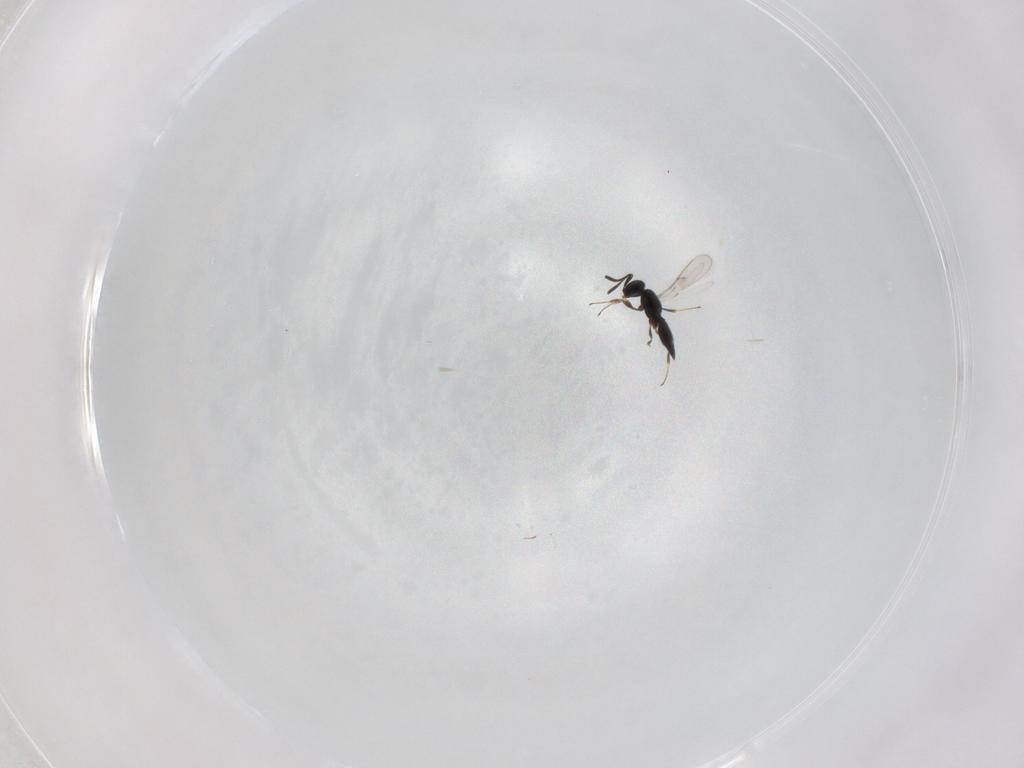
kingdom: Animalia
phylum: Arthropoda
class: Insecta
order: Hymenoptera
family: Scelionidae
